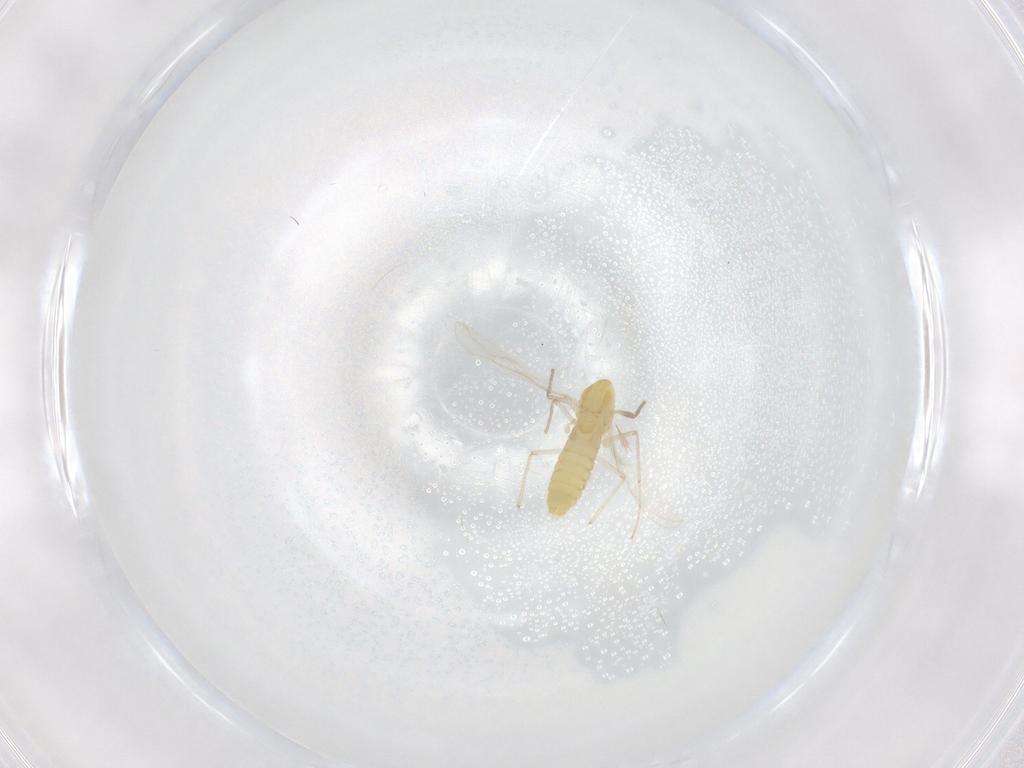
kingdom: Animalia
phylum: Arthropoda
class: Insecta
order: Diptera
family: Chironomidae
